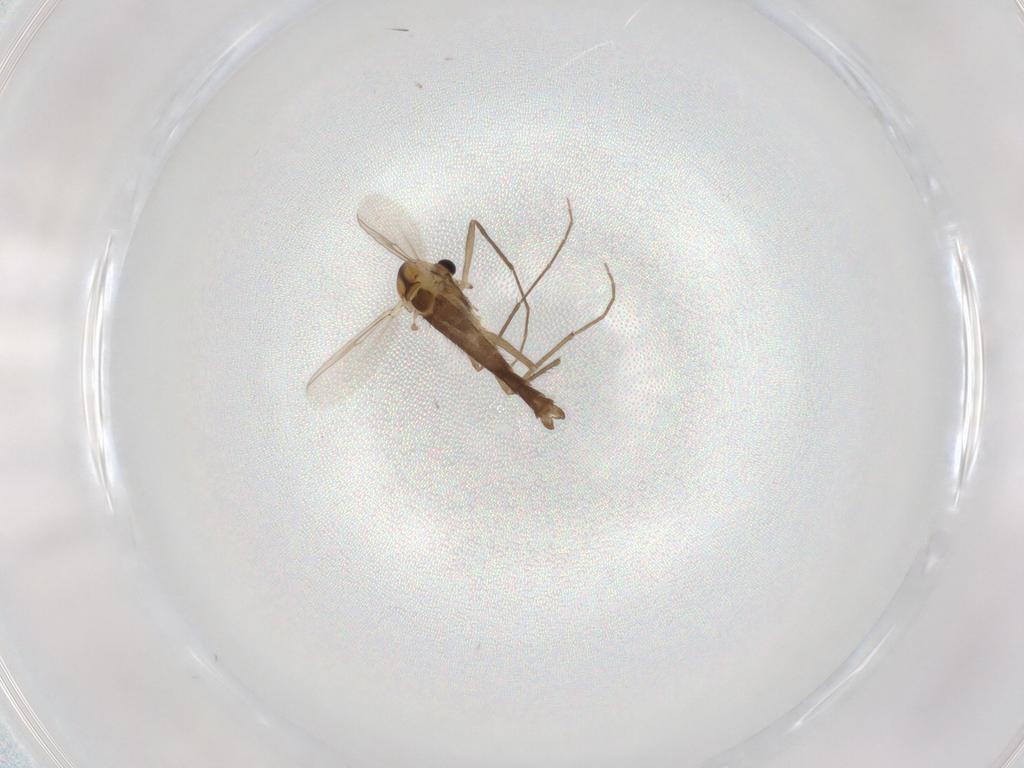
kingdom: Animalia
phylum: Arthropoda
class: Insecta
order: Diptera
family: Chironomidae
